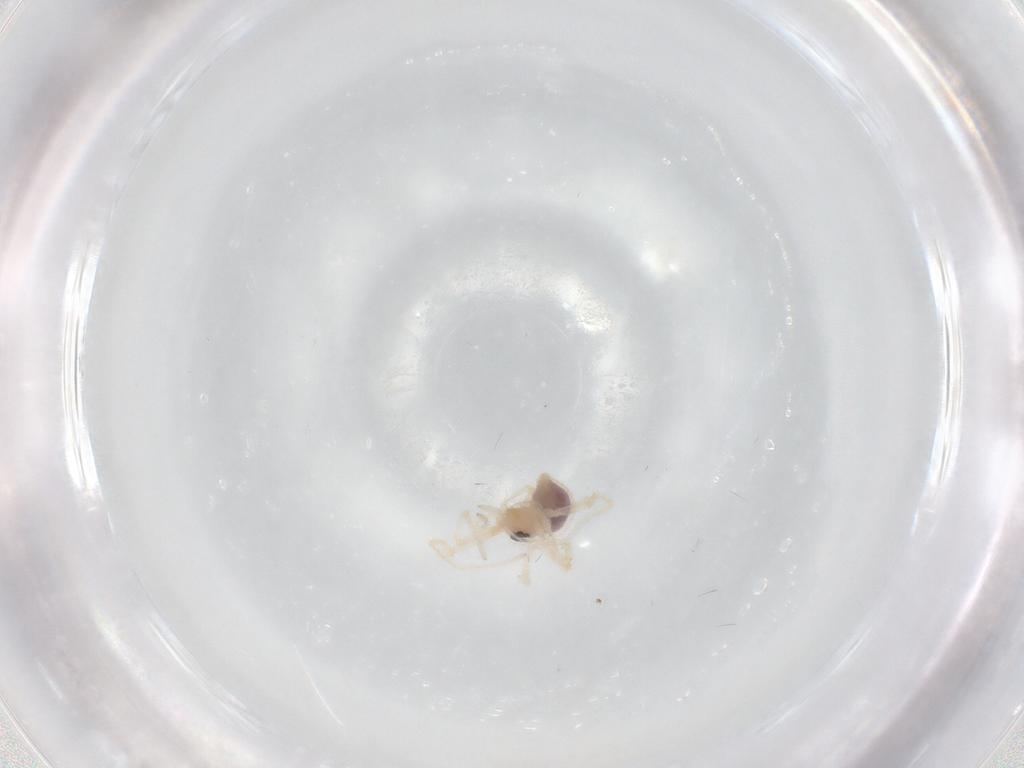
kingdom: Animalia
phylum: Arthropoda
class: Arachnida
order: Araneae
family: Pholcidae
